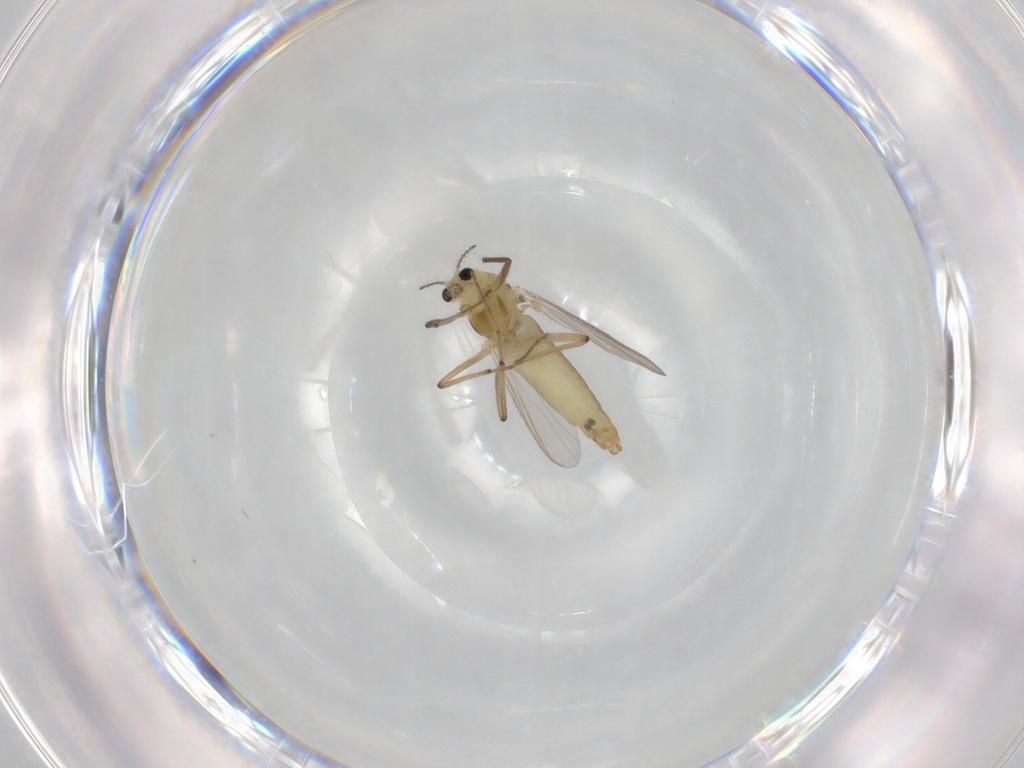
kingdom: Animalia
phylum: Arthropoda
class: Insecta
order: Diptera
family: Chironomidae
